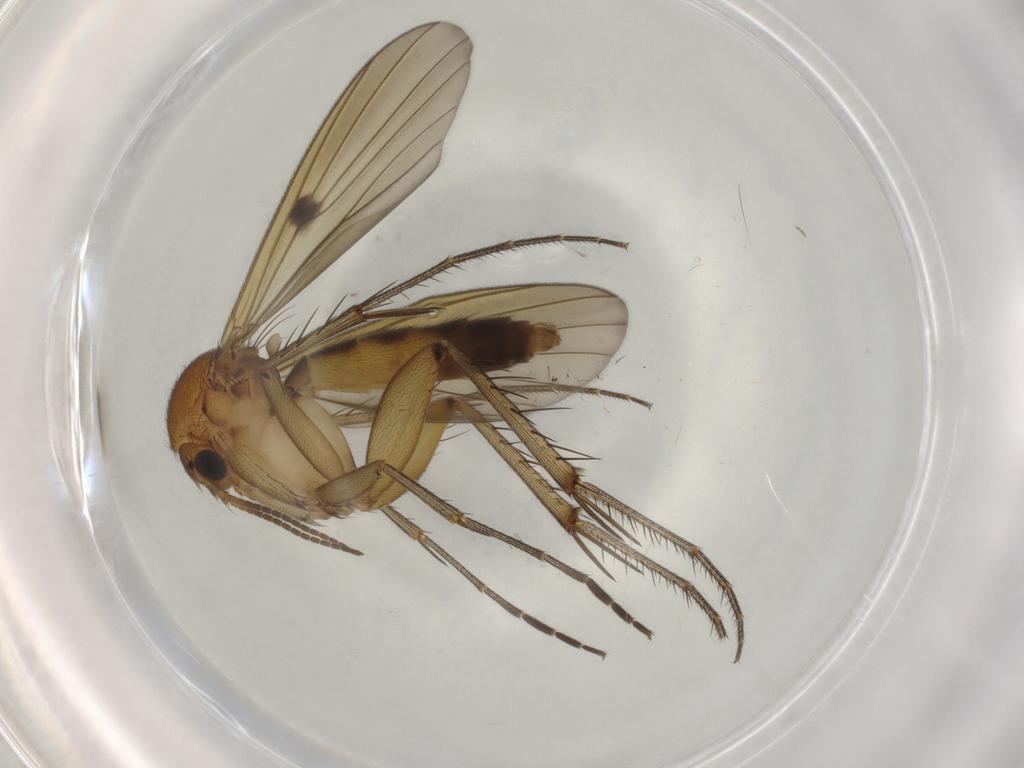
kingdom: Animalia
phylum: Arthropoda
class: Insecta
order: Diptera
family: Mycetophilidae
